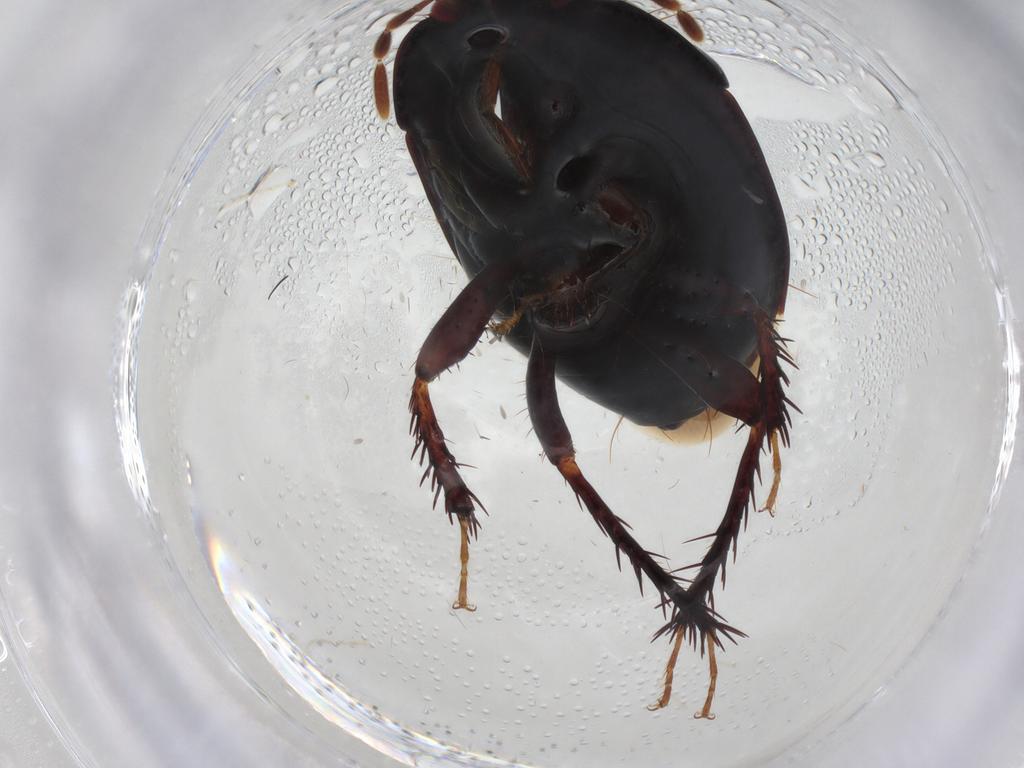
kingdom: Animalia
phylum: Arthropoda
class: Insecta
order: Hemiptera
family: Cydnidae
